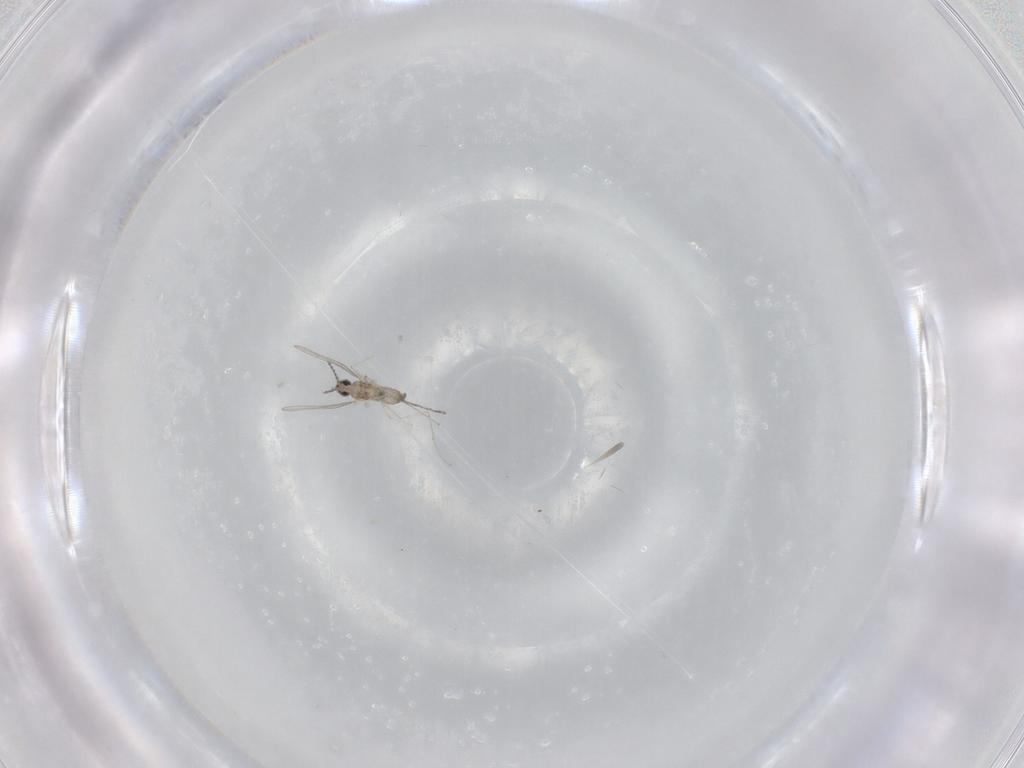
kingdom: Animalia
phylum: Arthropoda
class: Insecta
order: Diptera
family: Cecidomyiidae
